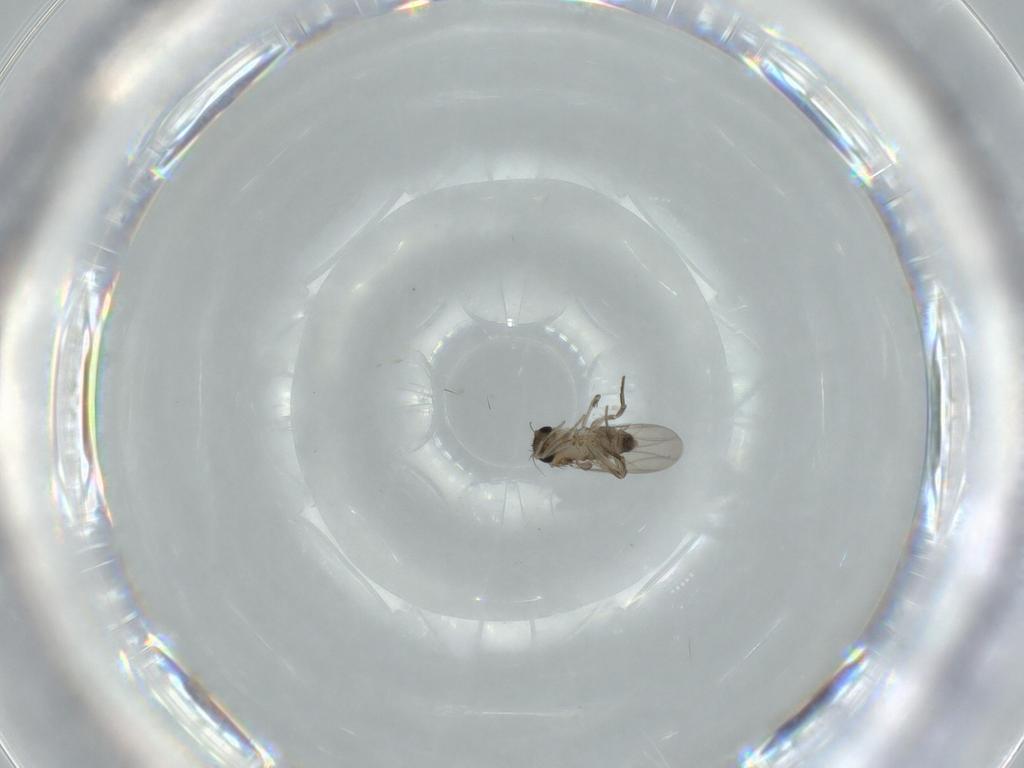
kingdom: Animalia
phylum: Arthropoda
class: Insecta
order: Diptera
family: Phoridae
